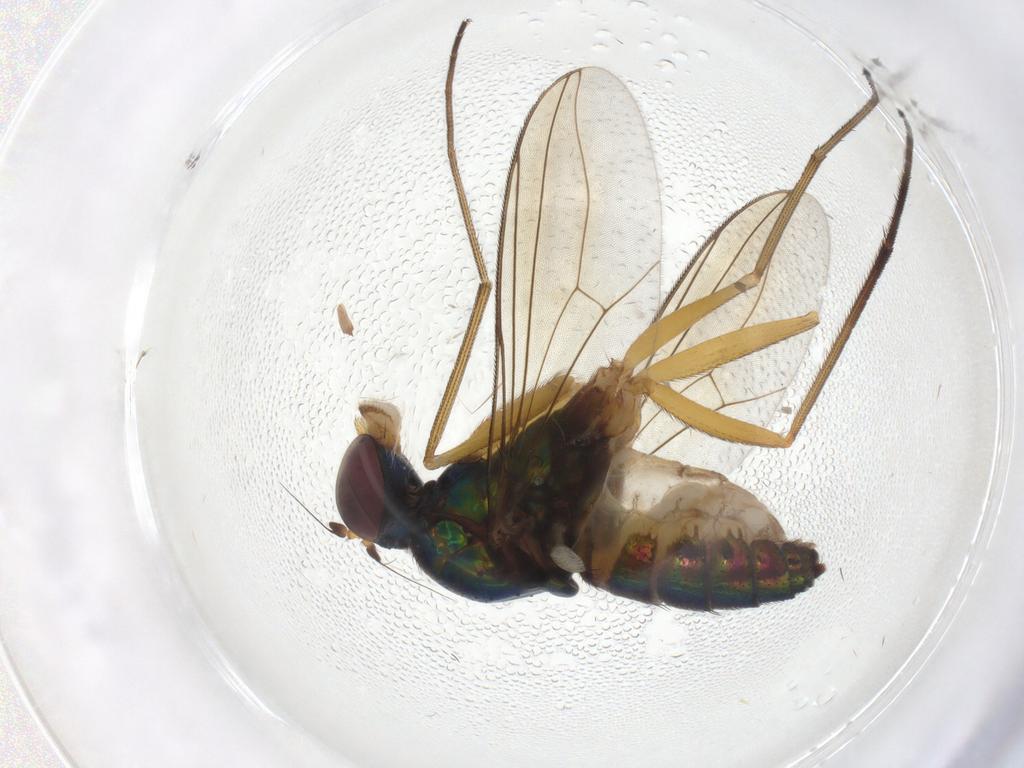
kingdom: Animalia
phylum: Arthropoda
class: Insecta
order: Diptera
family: Dolichopodidae
